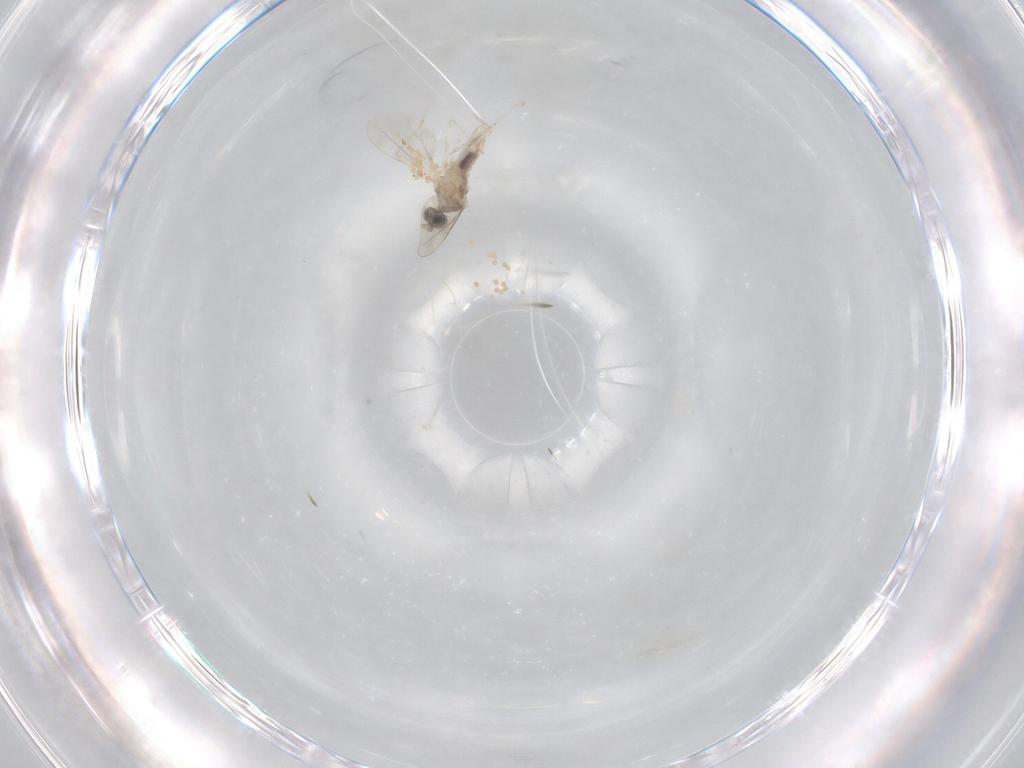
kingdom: Animalia
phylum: Arthropoda
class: Insecta
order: Diptera
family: Cecidomyiidae
